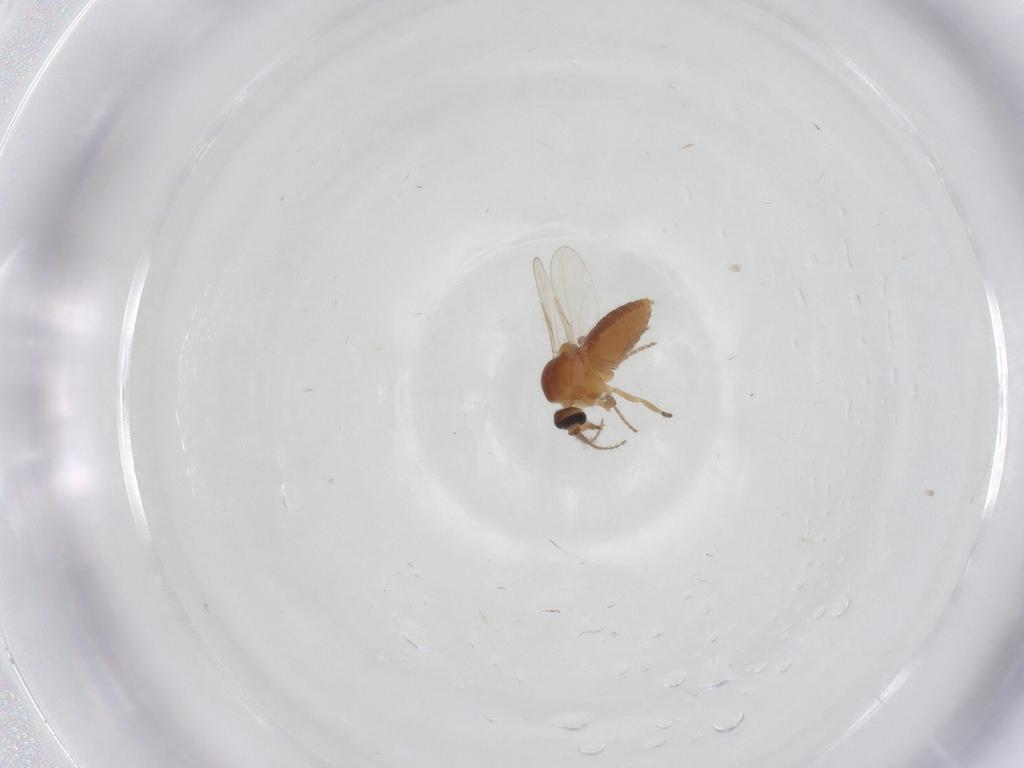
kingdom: Animalia
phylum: Arthropoda
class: Insecta
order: Diptera
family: Ceratopogonidae
